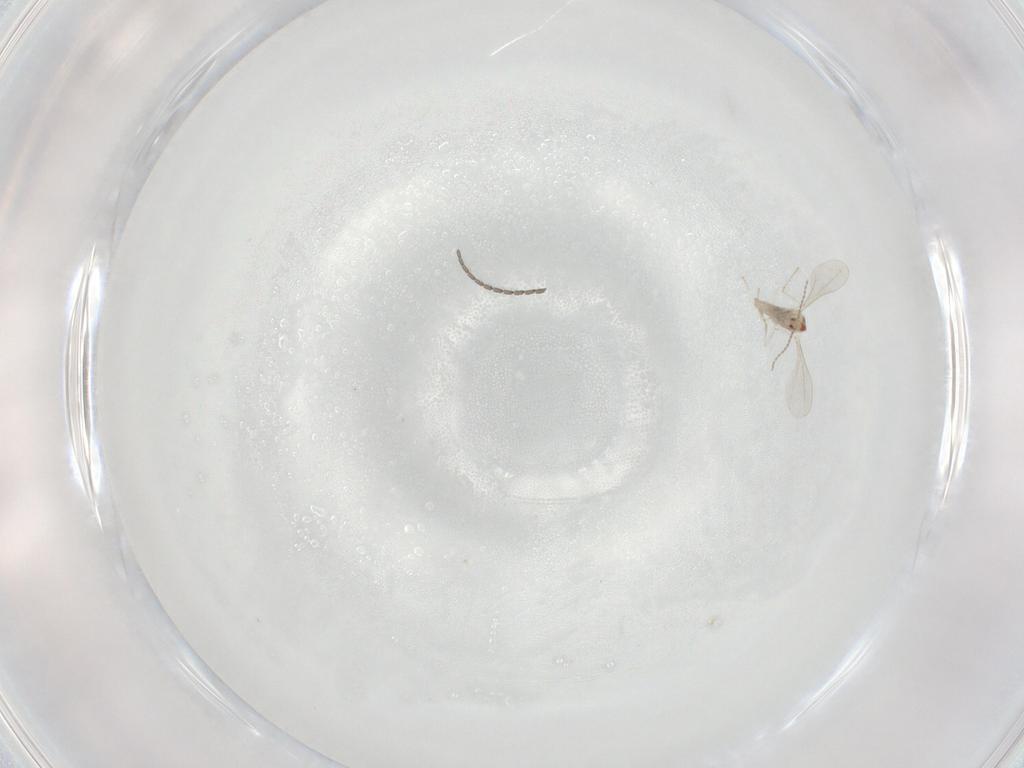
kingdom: Animalia
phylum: Arthropoda
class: Insecta
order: Diptera
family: Cecidomyiidae
